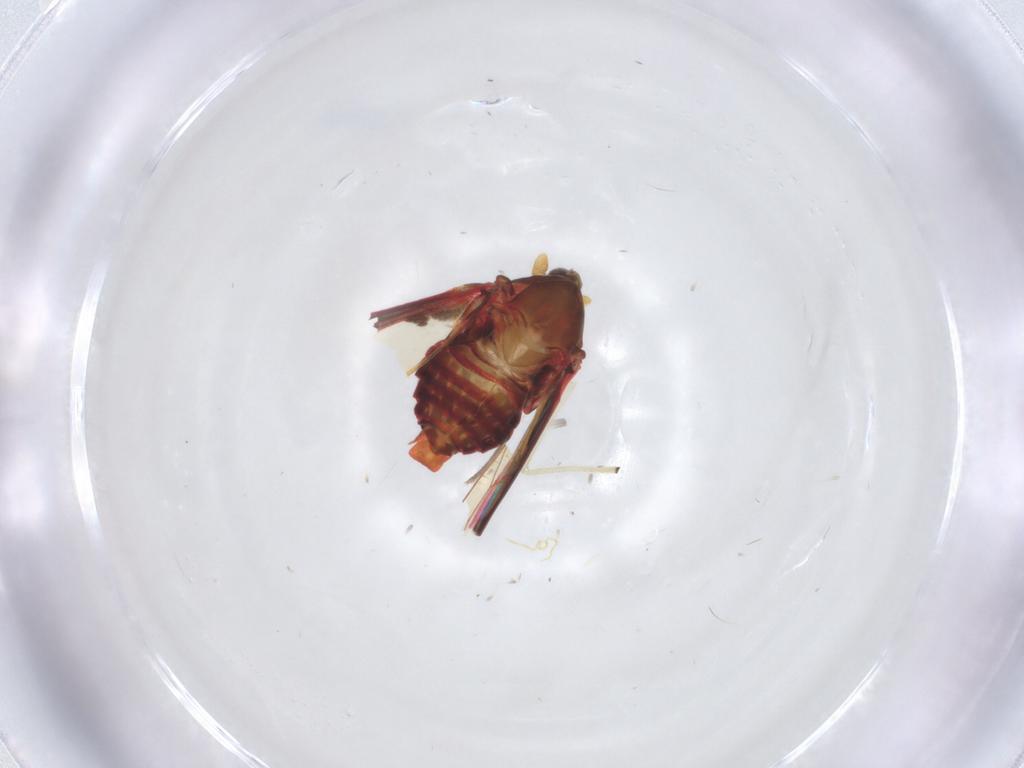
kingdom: Animalia
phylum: Arthropoda
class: Insecta
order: Hemiptera
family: Derbidae
